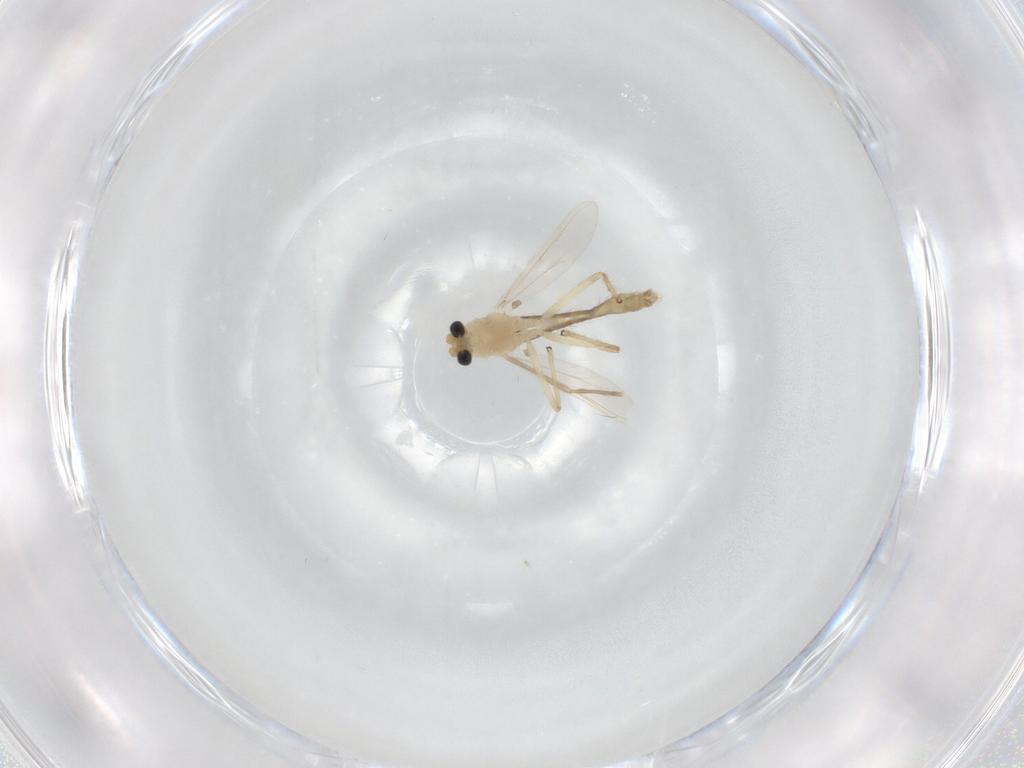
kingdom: Animalia
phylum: Arthropoda
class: Insecta
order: Diptera
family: Chironomidae
